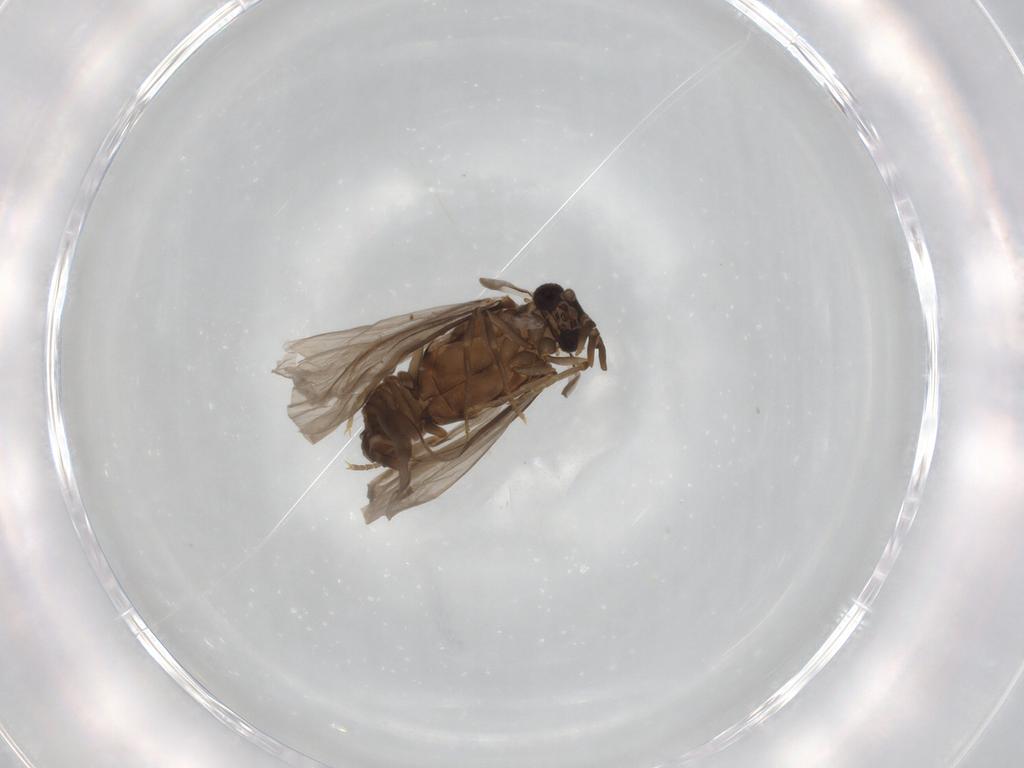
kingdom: Animalia
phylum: Arthropoda
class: Insecta
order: Strepsiptera
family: Mengenillidae
